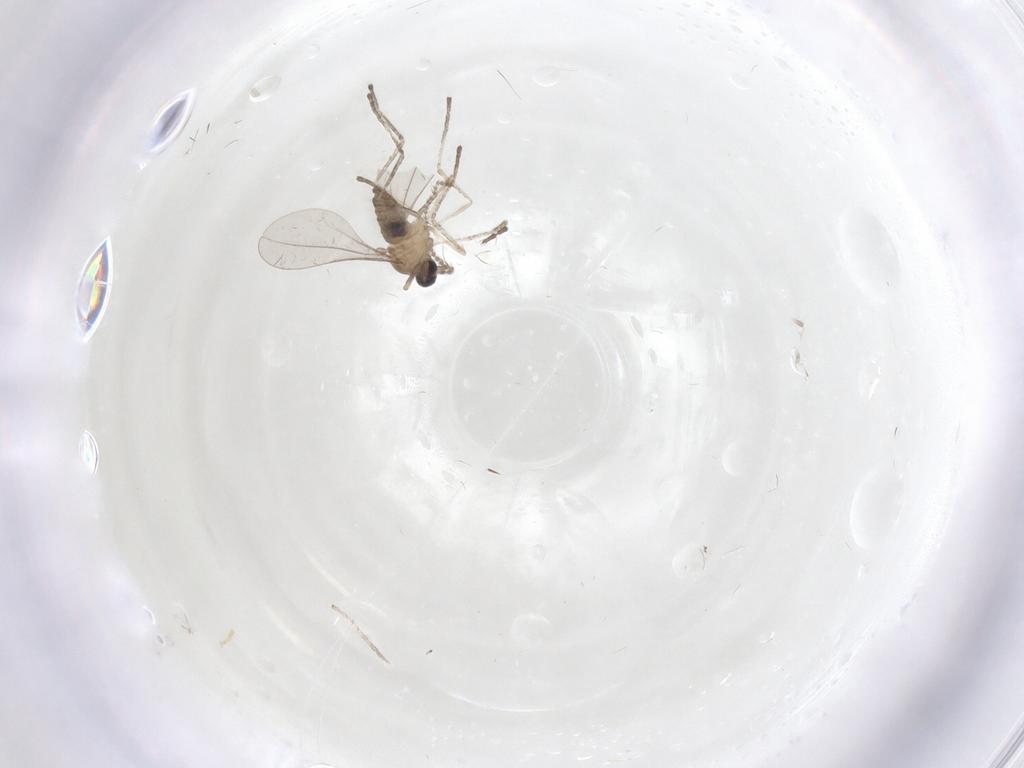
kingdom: Animalia
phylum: Arthropoda
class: Insecta
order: Diptera
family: Cecidomyiidae
